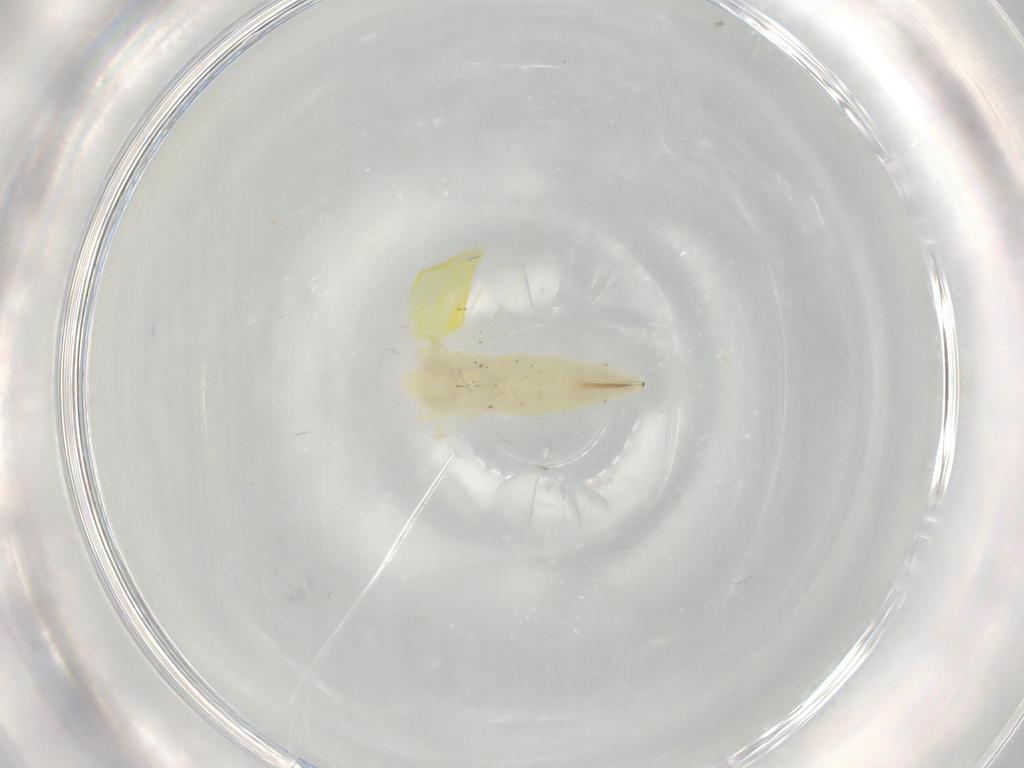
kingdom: Animalia
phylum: Arthropoda
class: Insecta
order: Hemiptera
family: Cicadellidae
